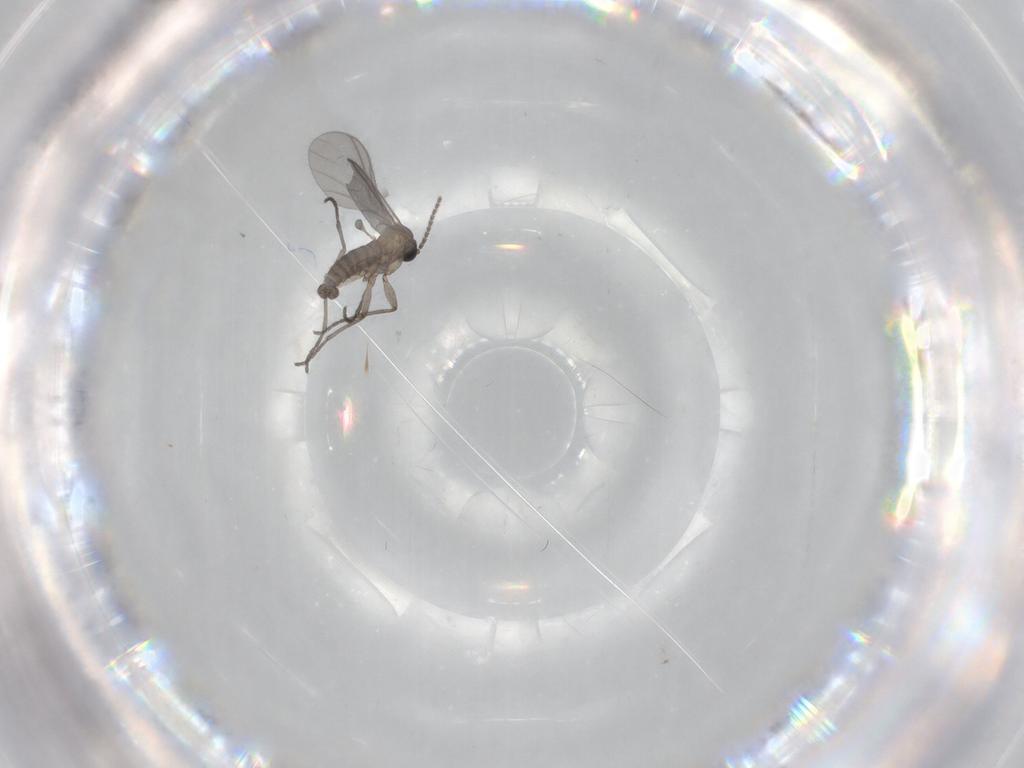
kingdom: Animalia
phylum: Arthropoda
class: Insecta
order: Diptera
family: Sciaridae
